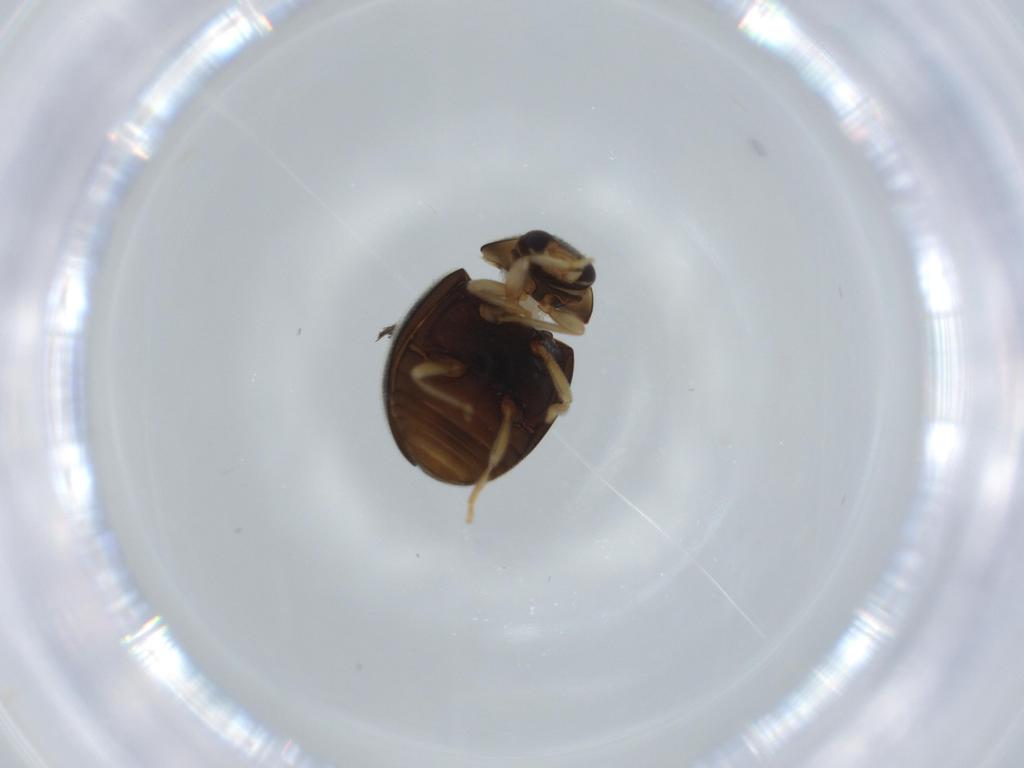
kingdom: Animalia
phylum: Arthropoda
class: Insecta
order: Coleoptera
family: Coccinellidae
